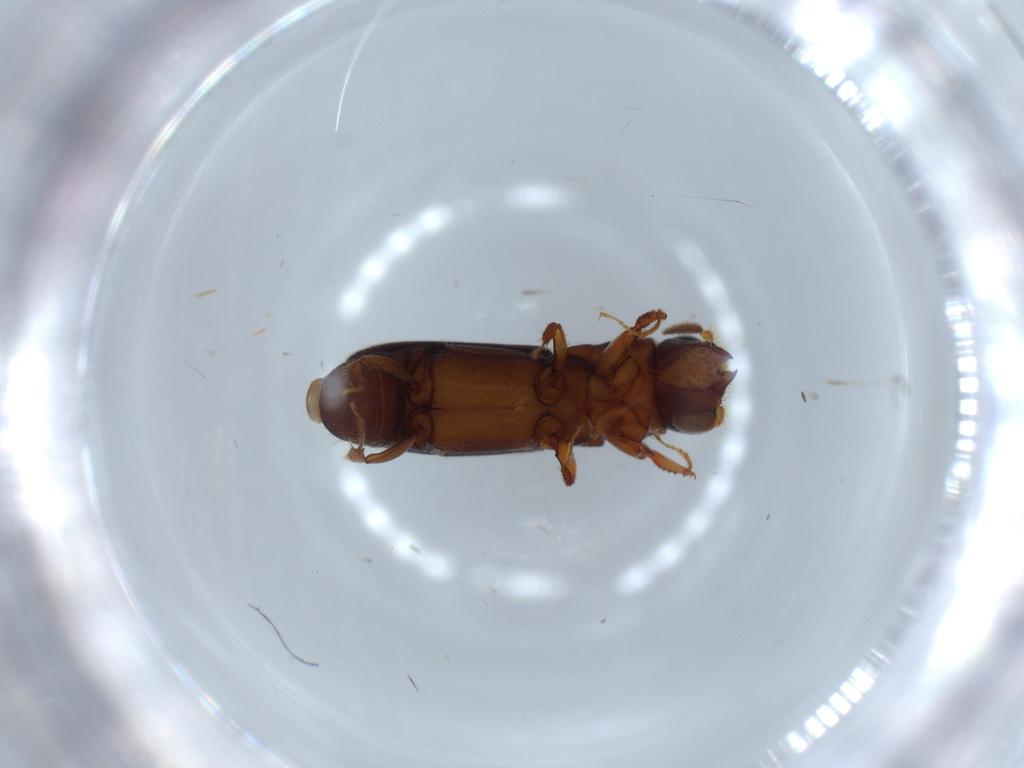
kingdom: Animalia
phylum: Arthropoda
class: Insecta
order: Coleoptera
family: Curculionidae
